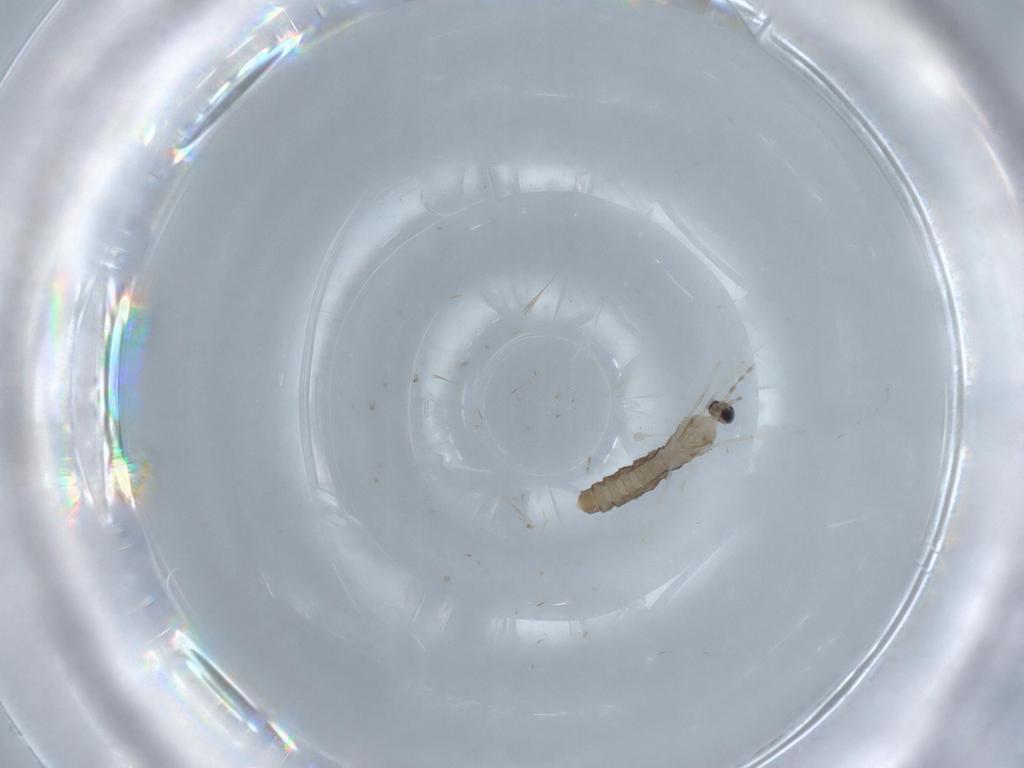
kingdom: Animalia
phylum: Arthropoda
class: Insecta
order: Diptera
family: Cecidomyiidae
